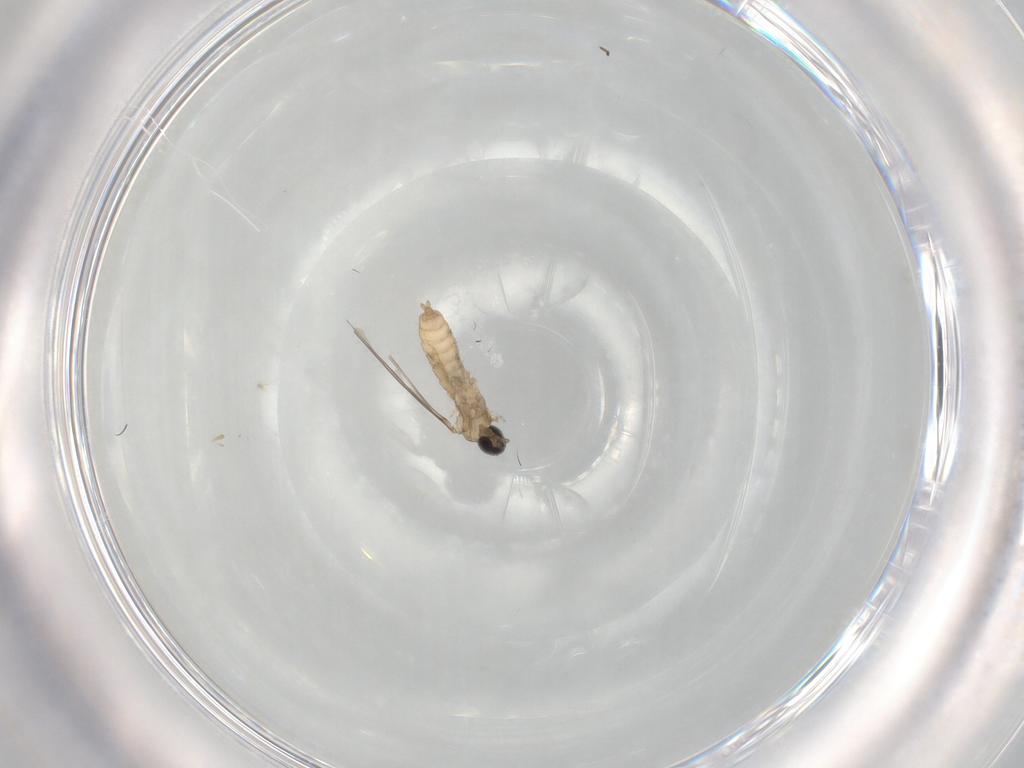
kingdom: Animalia
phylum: Arthropoda
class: Insecta
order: Diptera
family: Cecidomyiidae
